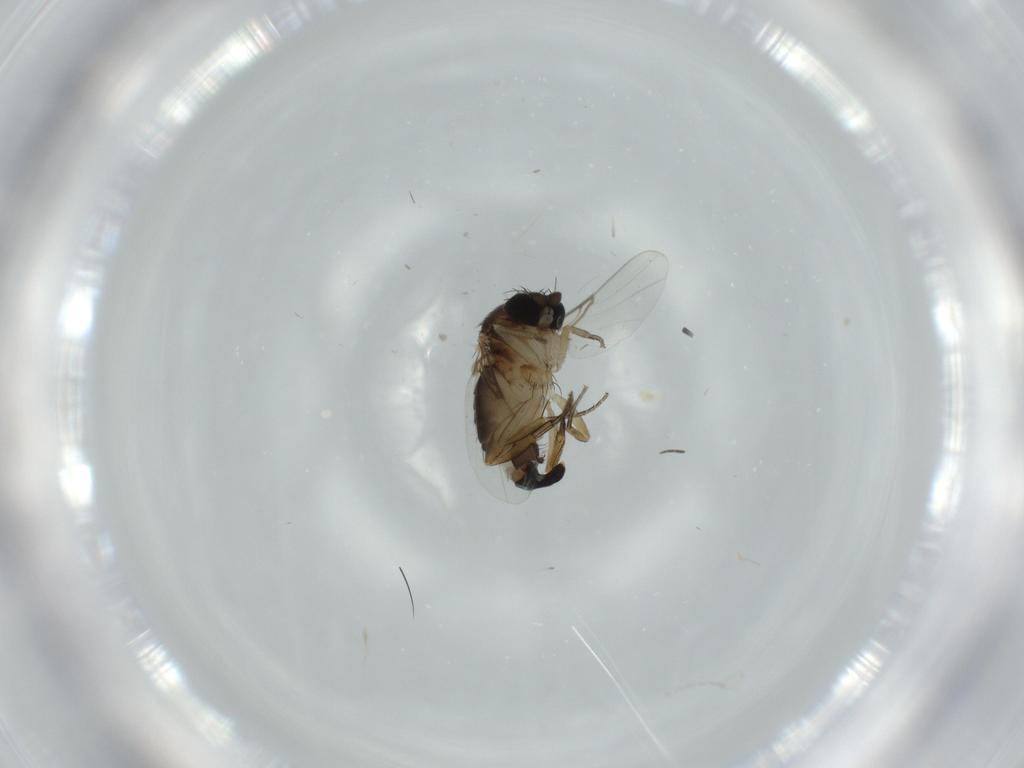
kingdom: Animalia
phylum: Arthropoda
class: Insecta
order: Diptera
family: Phoridae
